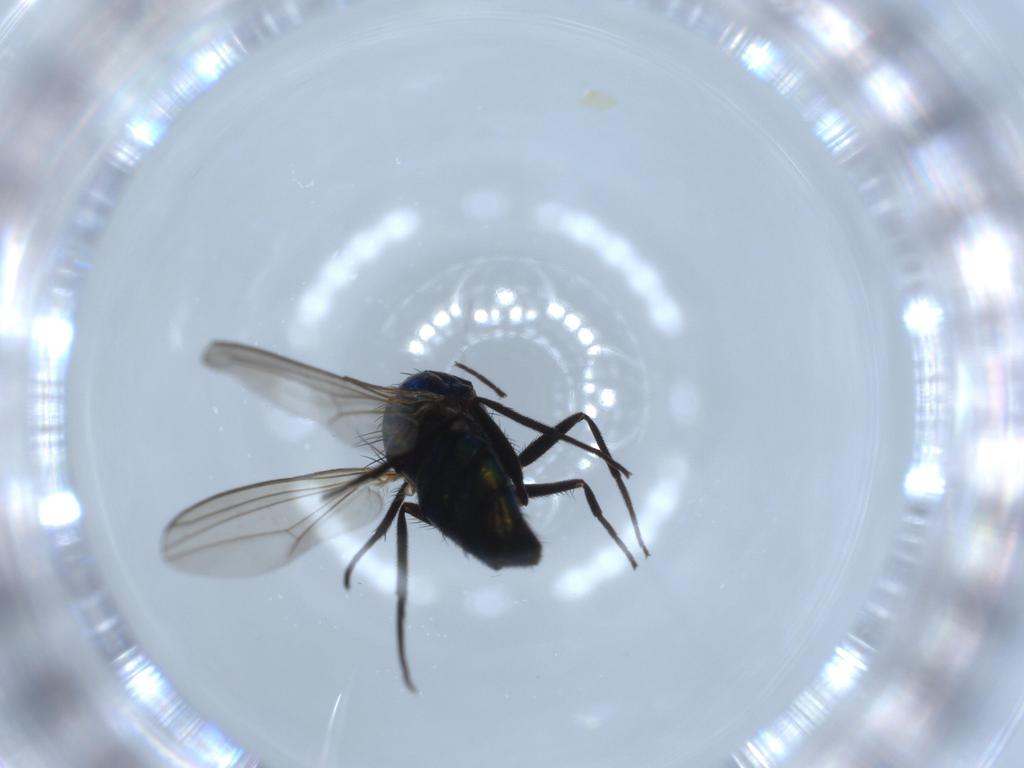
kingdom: Animalia
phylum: Arthropoda
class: Insecta
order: Diptera
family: Dolichopodidae
